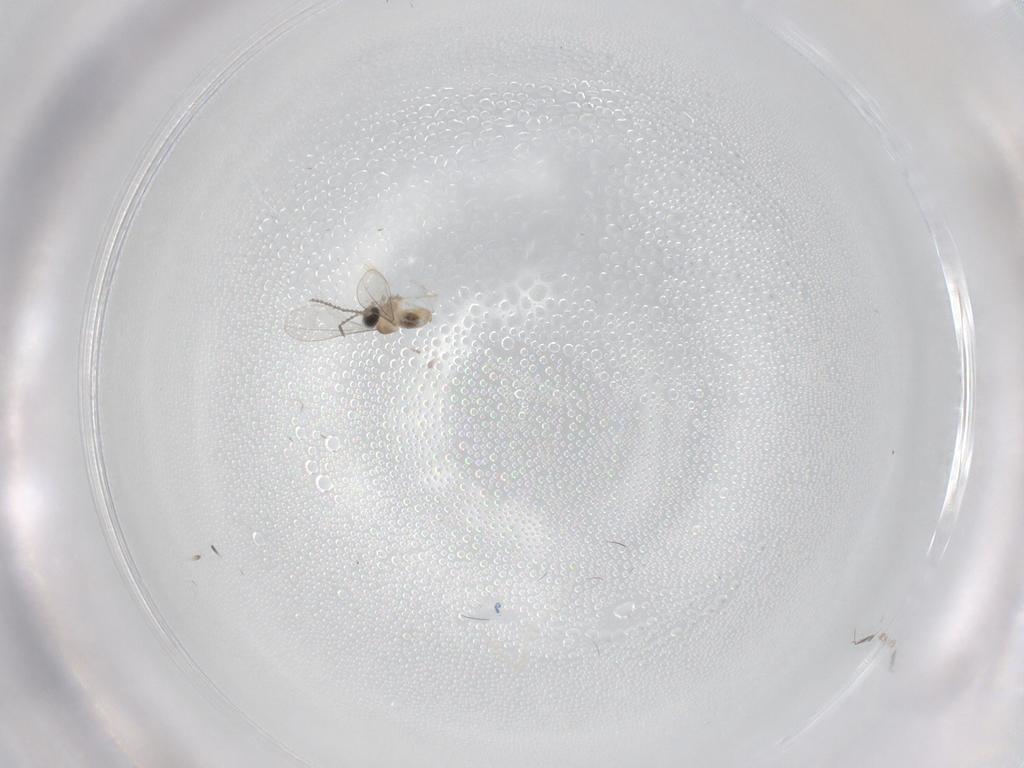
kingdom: Animalia
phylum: Arthropoda
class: Insecta
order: Diptera
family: Cecidomyiidae
